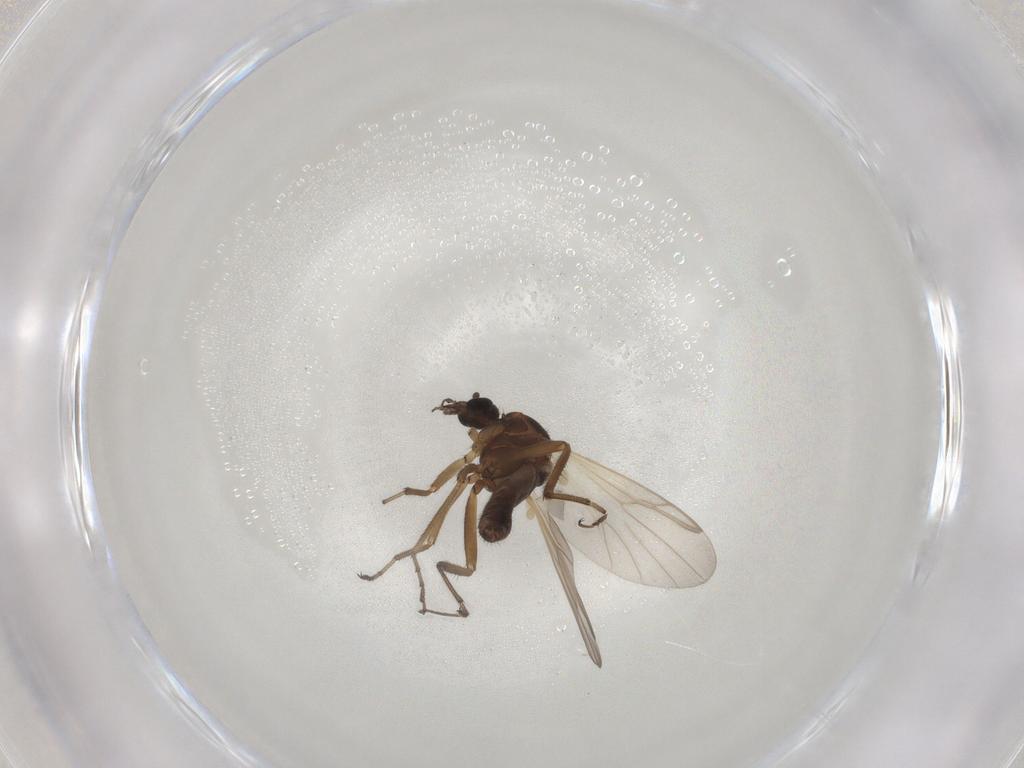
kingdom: Animalia
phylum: Arthropoda
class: Insecta
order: Diptera
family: Ceratopogonidae
